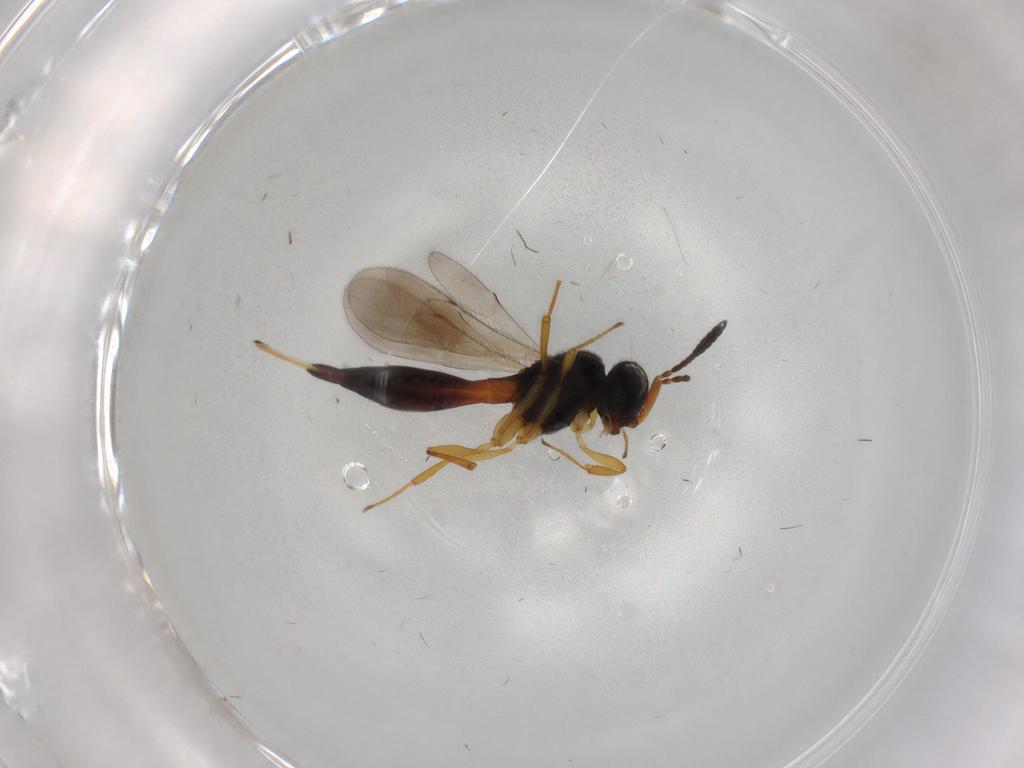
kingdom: Animalia
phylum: Arthropoda
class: Insecta
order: Hymenoptera
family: Scelionidae
